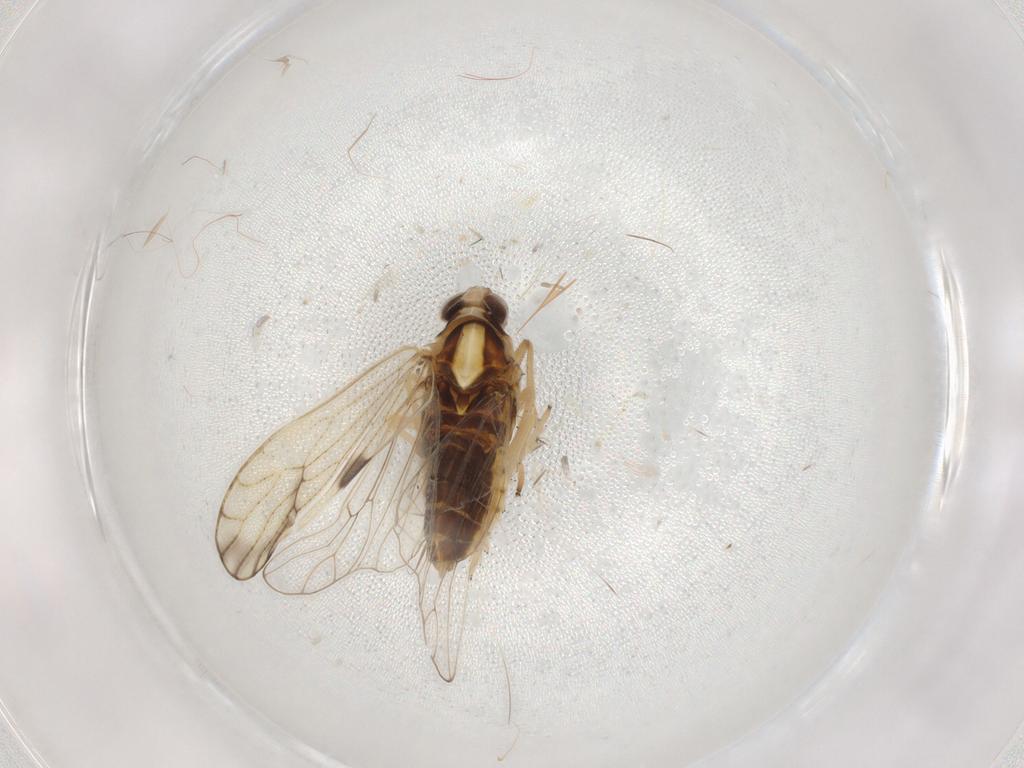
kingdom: Animalia
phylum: Arthropoda
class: Insecta
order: Hemiptera
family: Delphacidae
